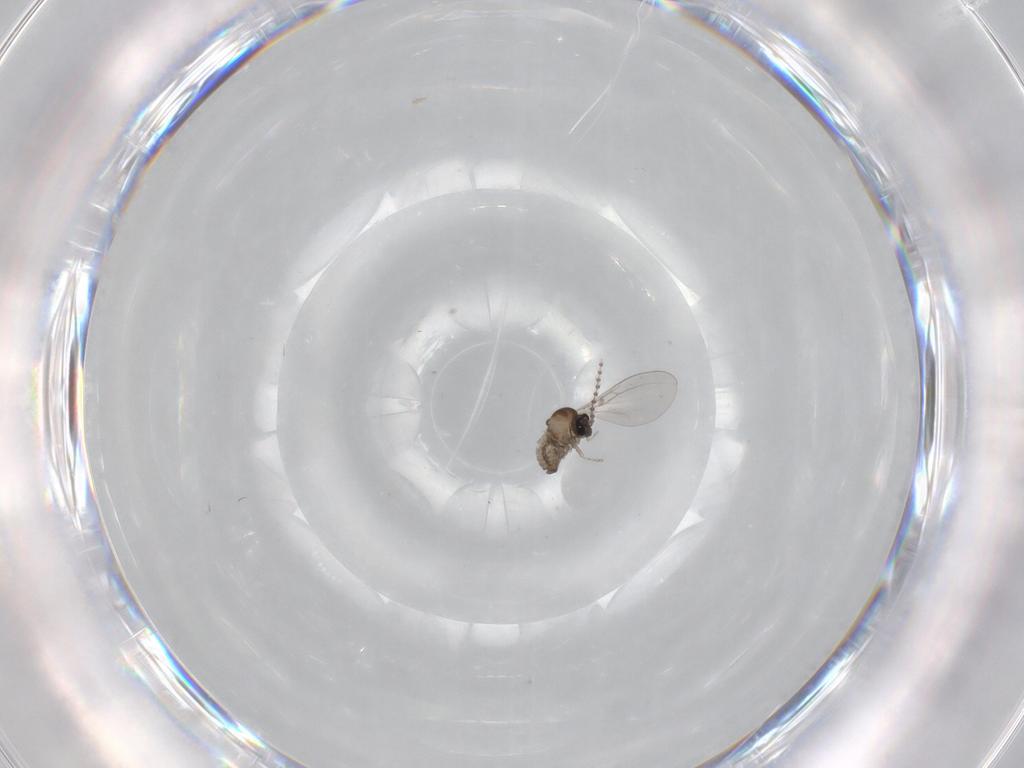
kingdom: Animalia
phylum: Arthropoda
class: Insecta
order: Diptera
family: Cecidomyiidae
